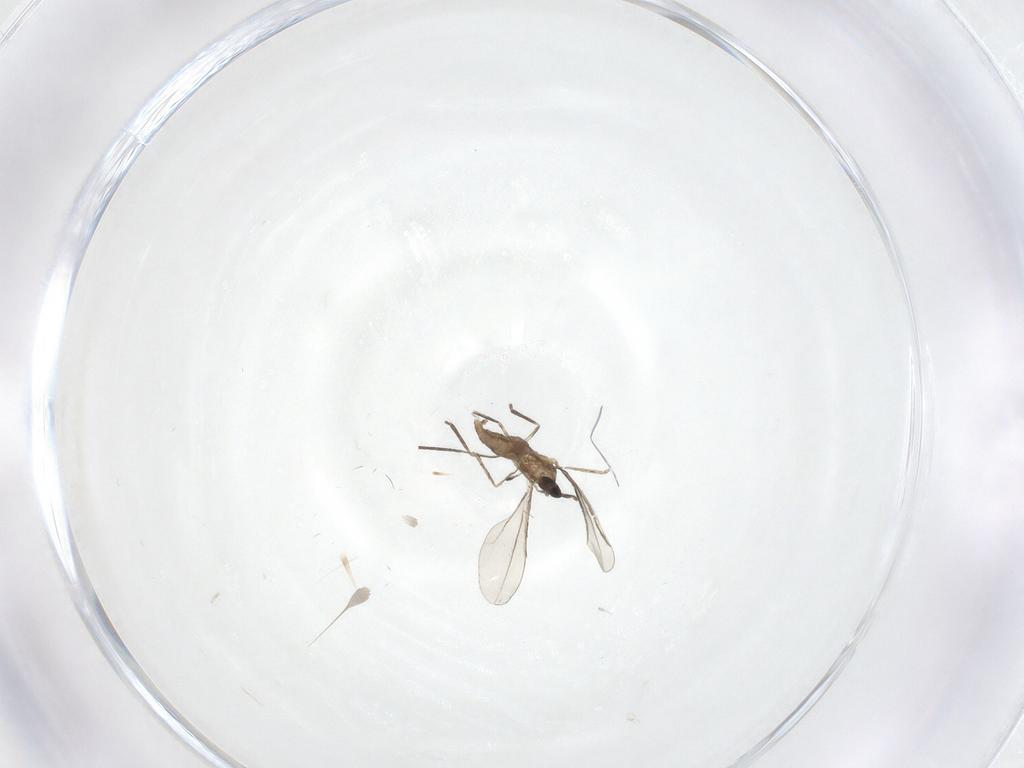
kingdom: Animalia
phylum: Arthropoda
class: Insecta
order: Diptera
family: Cecidomyiidae
